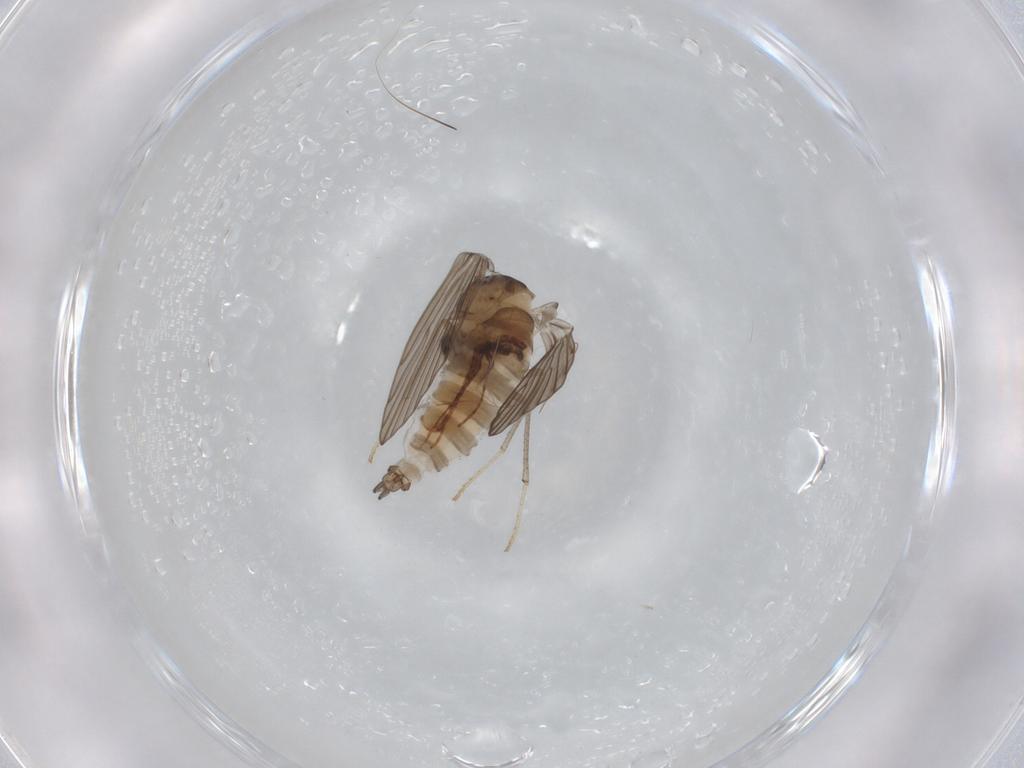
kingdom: Animalia
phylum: Arthropoda
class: Insecta
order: Diptera
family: Psychodidae
